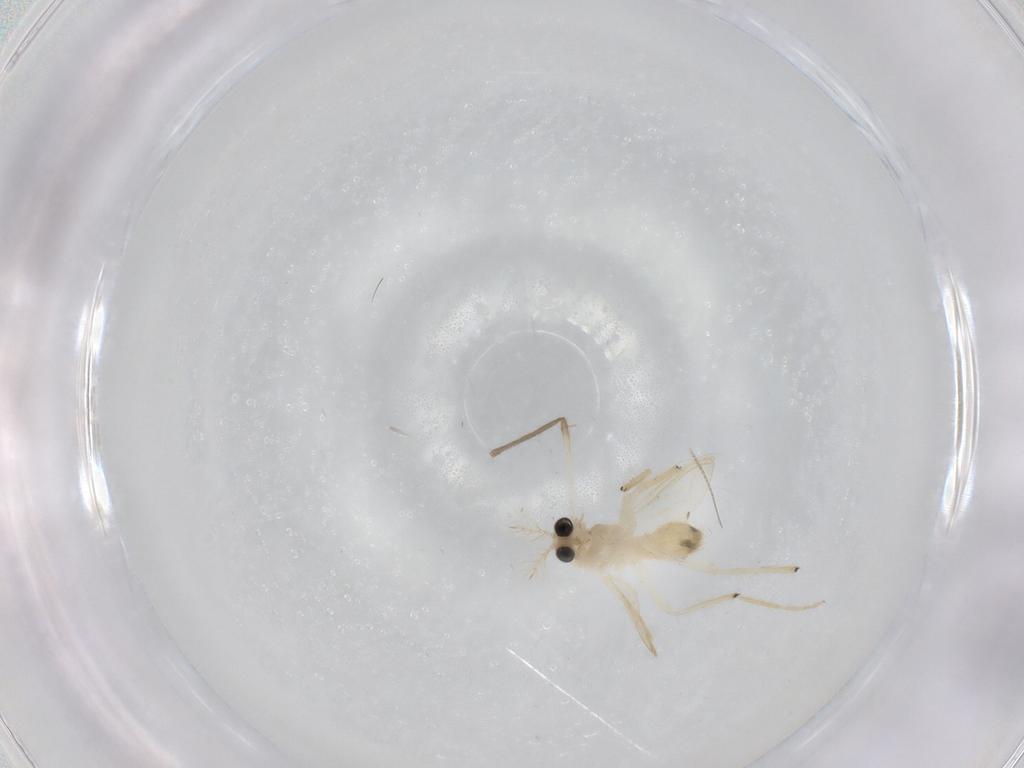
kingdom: Animalia
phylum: Arthropoda
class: Insecta
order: Diptera
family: Chironomidae
